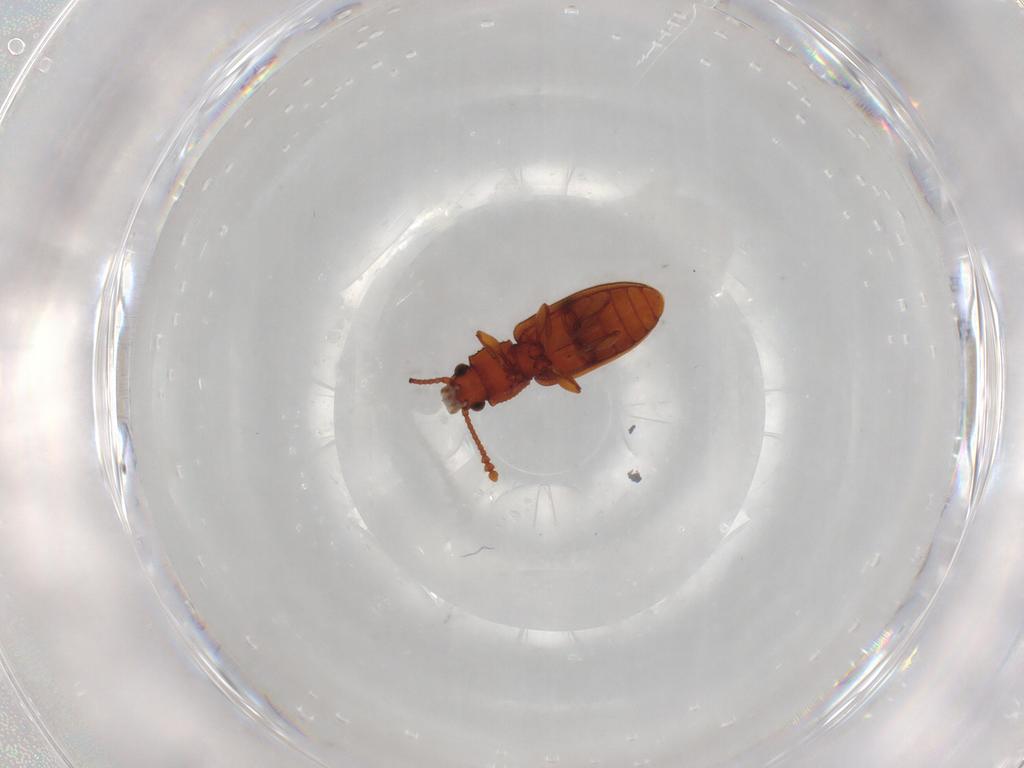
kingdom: Animalia
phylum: Arthropoda
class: Insecta
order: Coleoptera
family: Silvanidae
